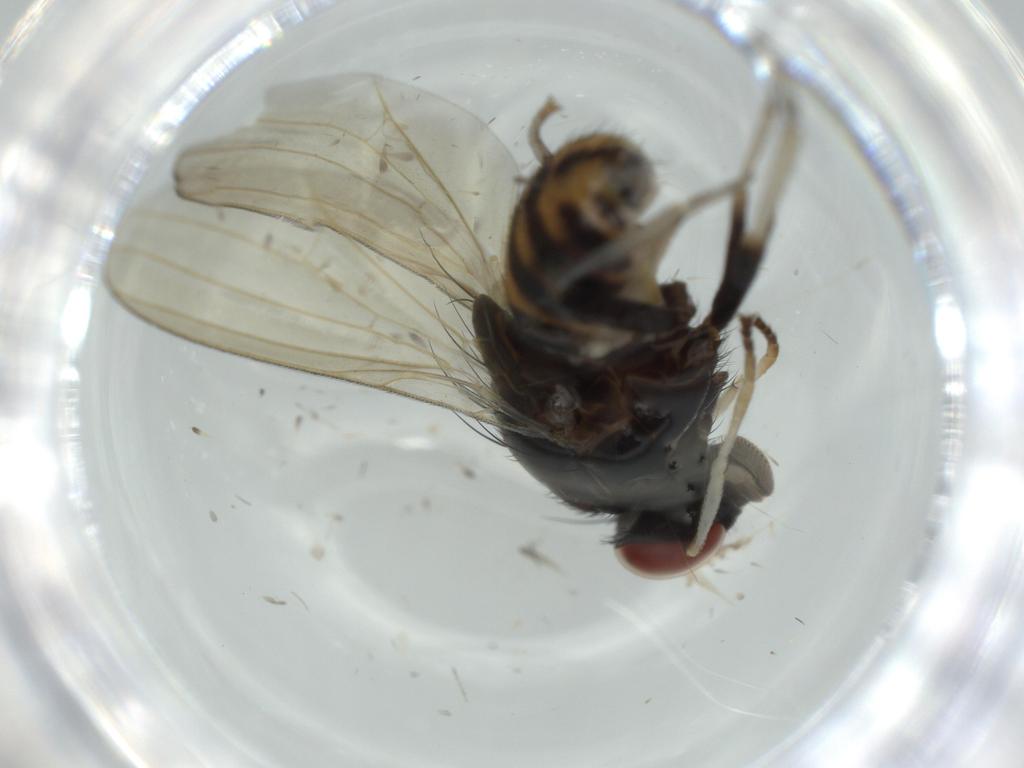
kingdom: Animalia
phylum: Arthropoda
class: Insecta
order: Diptera
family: Cecidomyiidae
